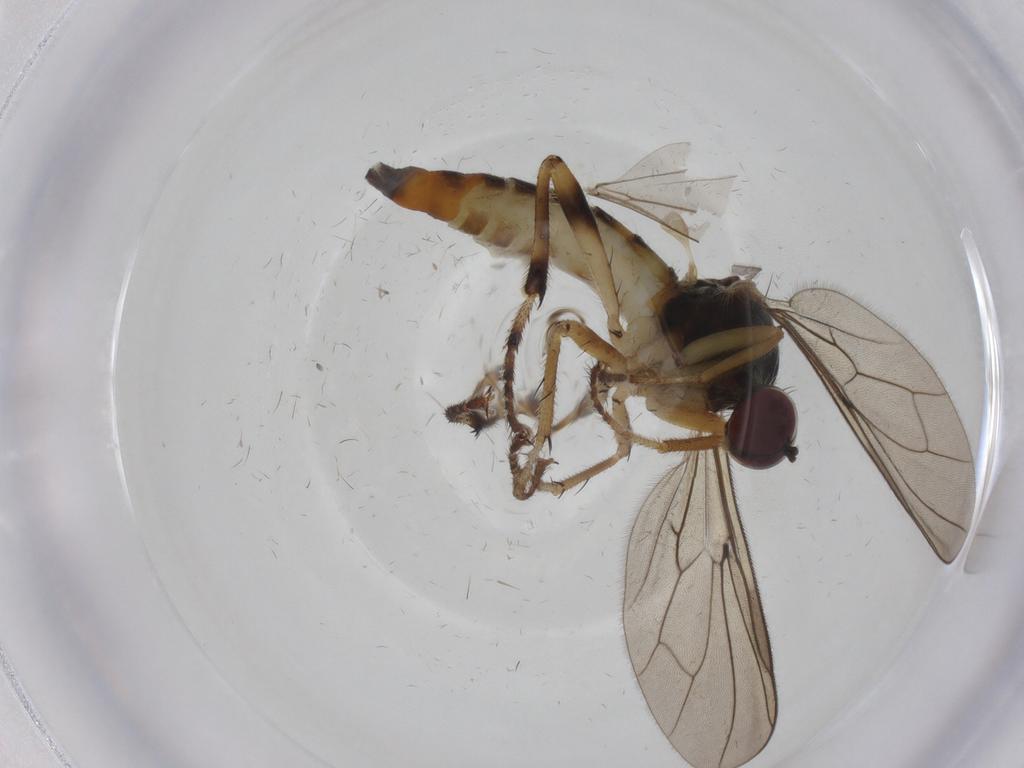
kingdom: Animalia
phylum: Arthropoda
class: Insecta
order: Diptera
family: Hybotidae
